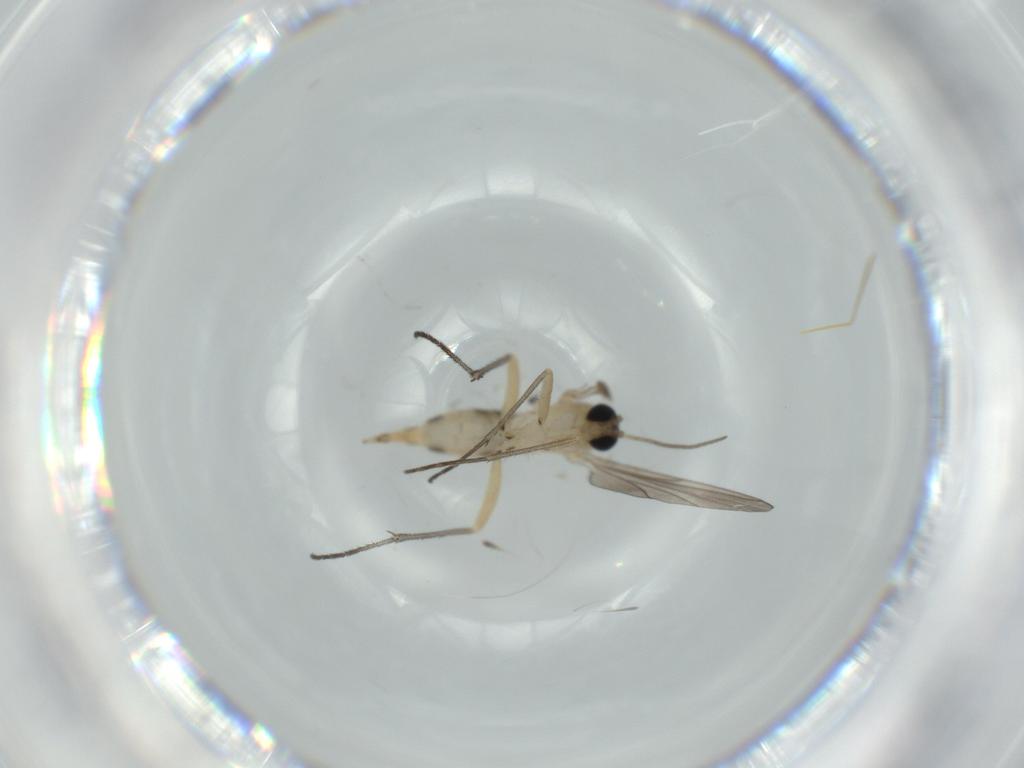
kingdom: Animalia
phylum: Arthropoda
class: Insecta
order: Diptera
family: Sciaridae
